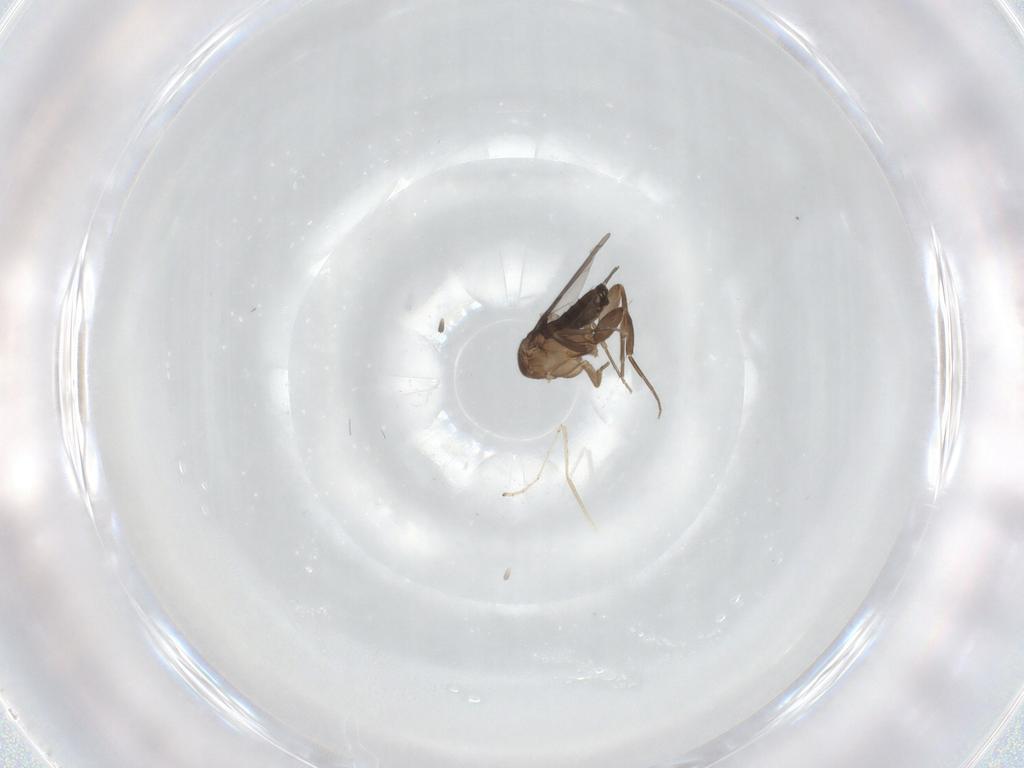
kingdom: Animalia
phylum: Arthropoda
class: Insecta
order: Diptera
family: Phoridae
